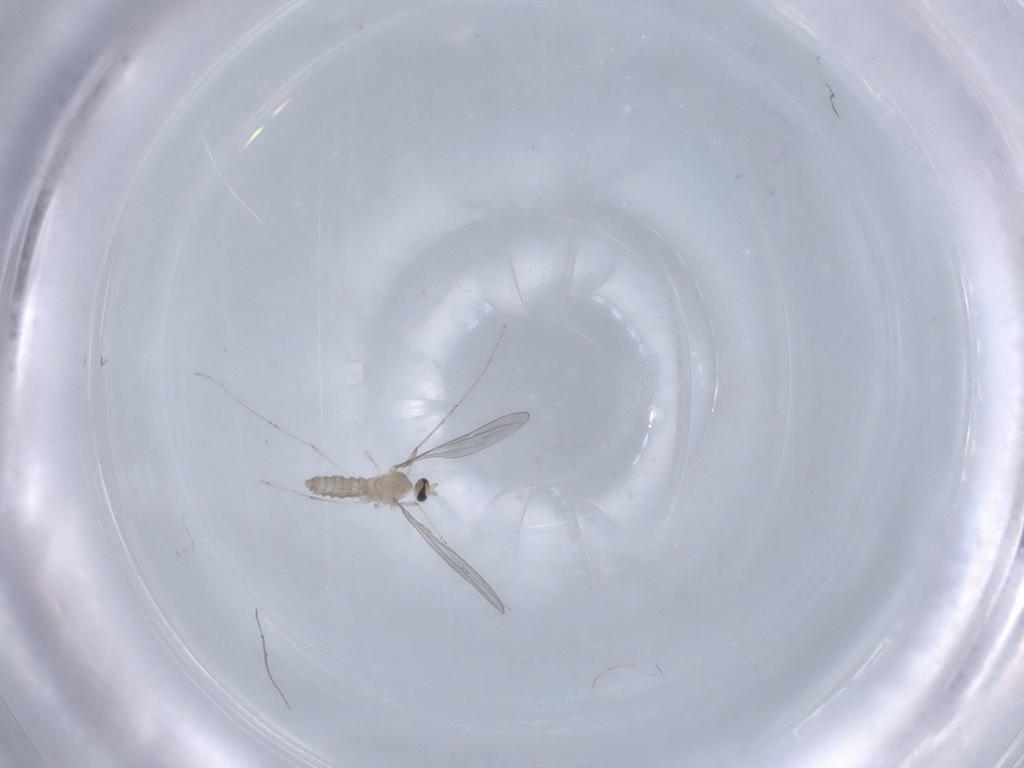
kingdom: Animalia
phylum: Arthropoda
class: Insecta
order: Diptera
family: Cecidomyiidae
